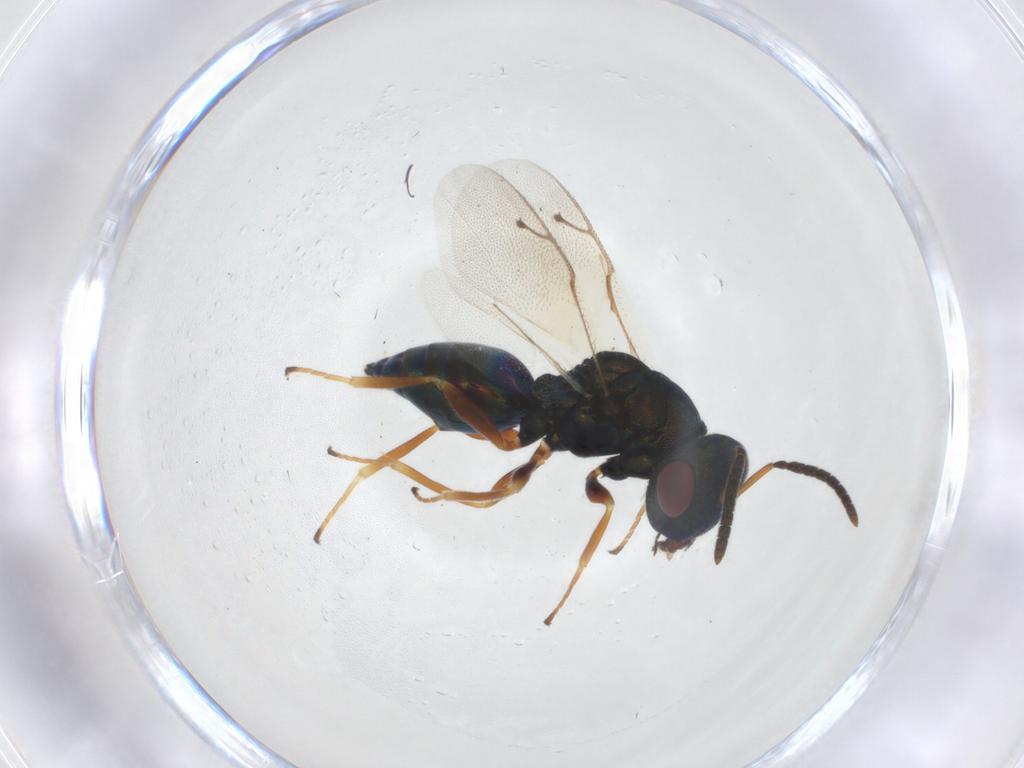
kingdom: Animalia
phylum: Arthropoda
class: Insecta
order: Hymenoptera
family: Pteromalidae
